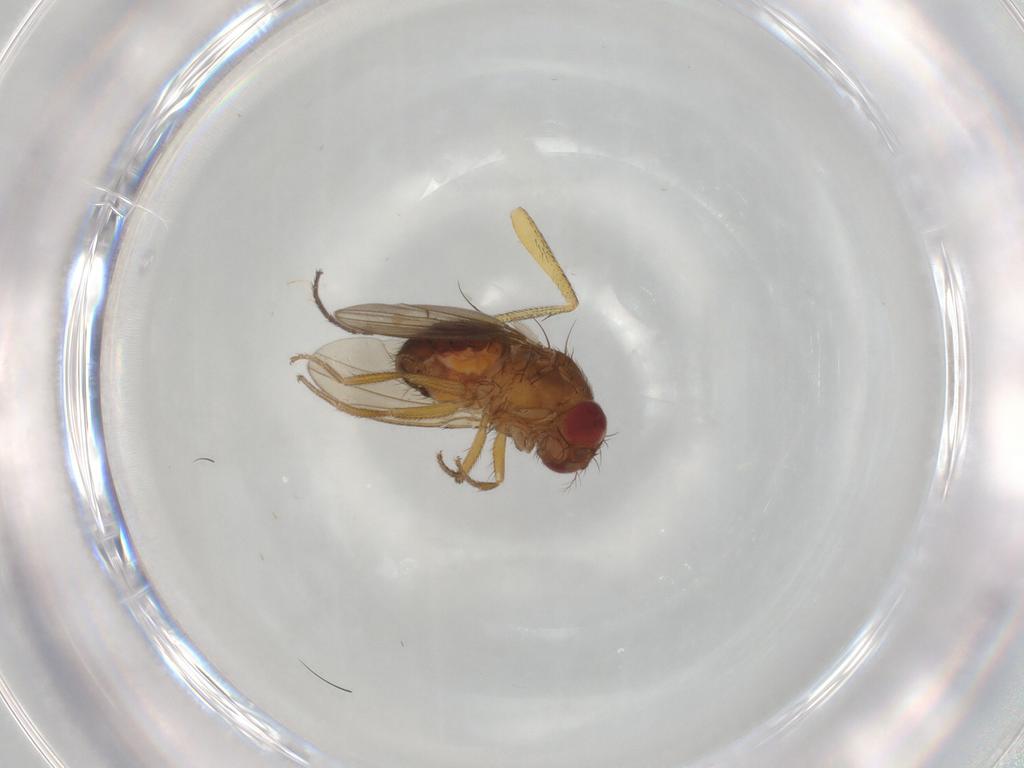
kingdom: Animalia
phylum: Arthropoda
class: Insecta
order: Diptera
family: Drosophilidae
